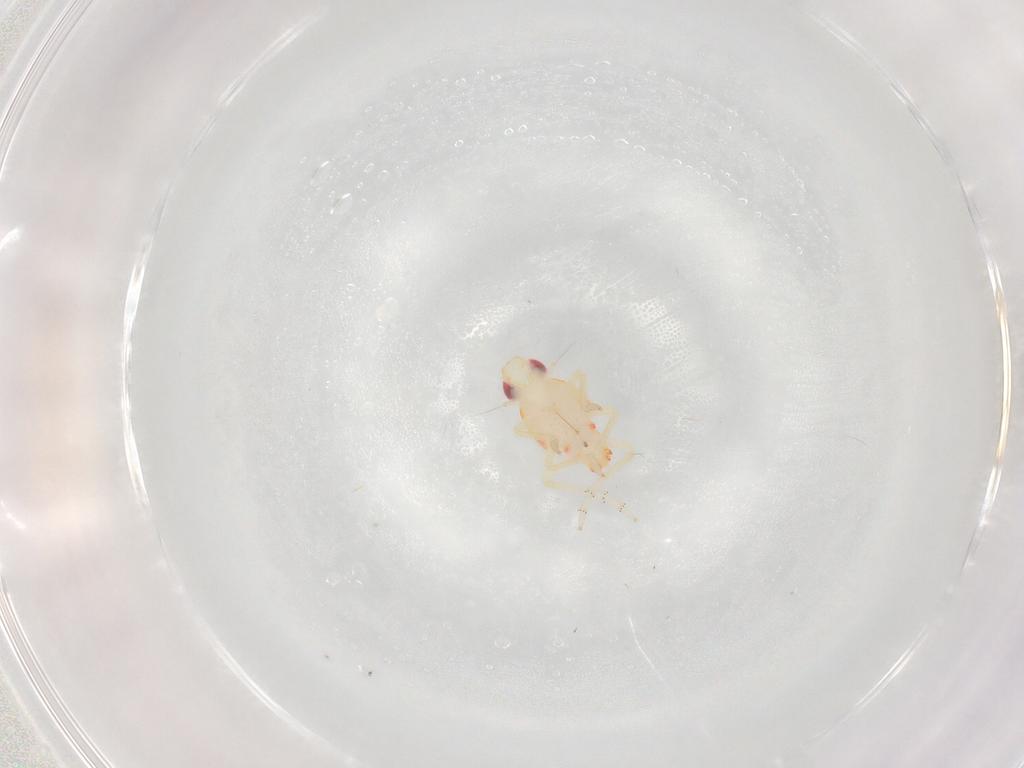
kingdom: Animalia
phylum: Arthropoda
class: Insecta
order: Hemiptera
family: Tropiduchidae
